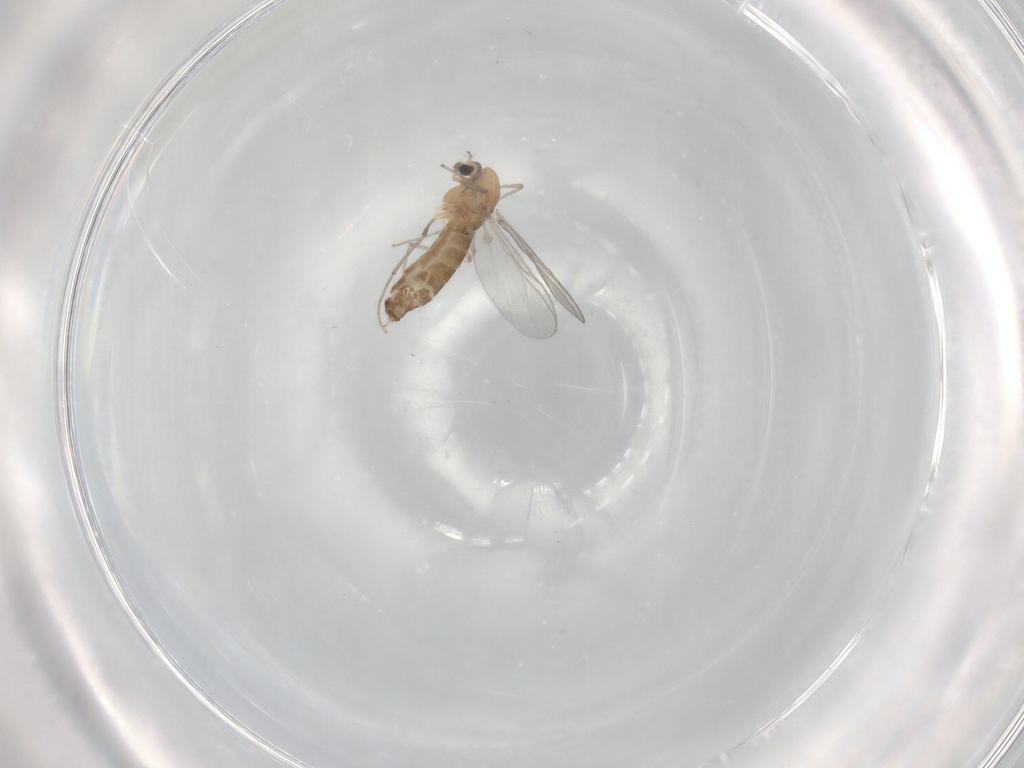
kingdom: Animalia
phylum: Arthropoda
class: Insecta
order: Diptera
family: Chironomidae
